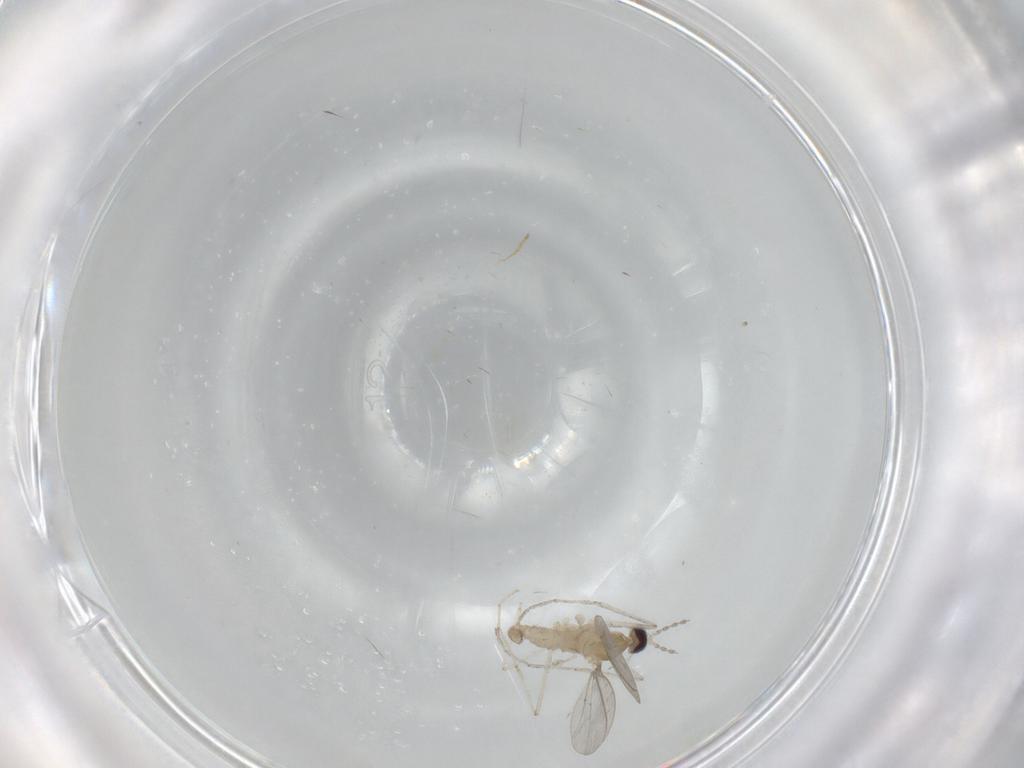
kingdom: Animalia
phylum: Arthropoda
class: Insecta
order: Diptera
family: Cecidomyiidae
